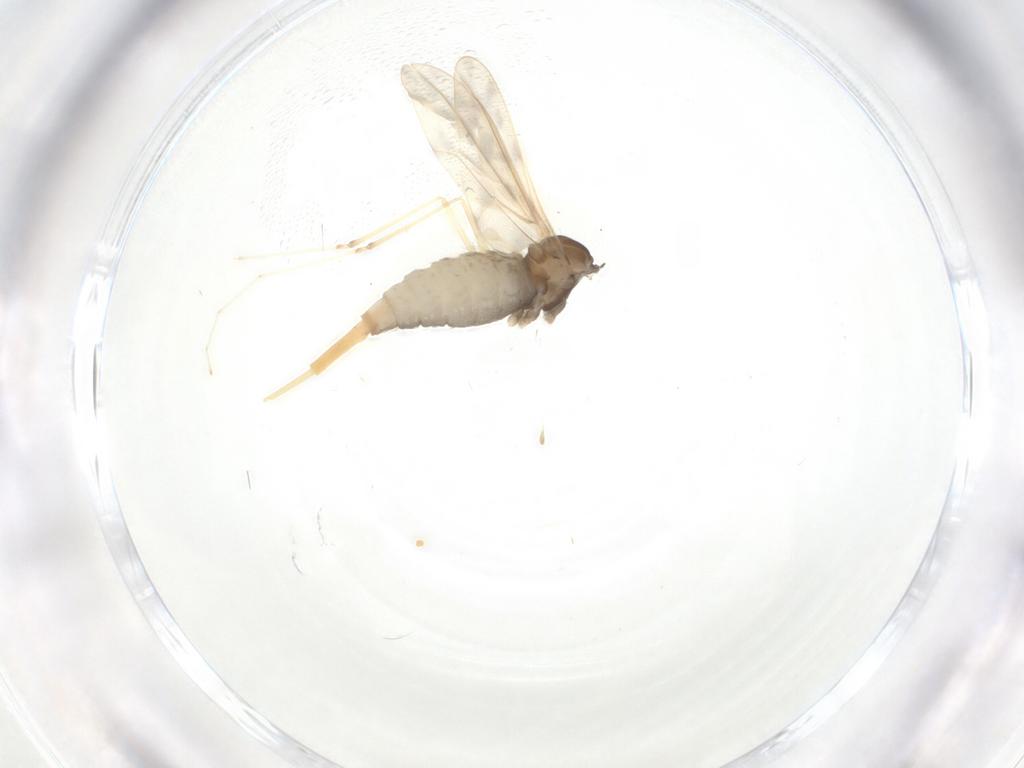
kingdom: Animalia
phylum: Arthropoda
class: Insecta
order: Diptera
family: Cecidomyiidae
